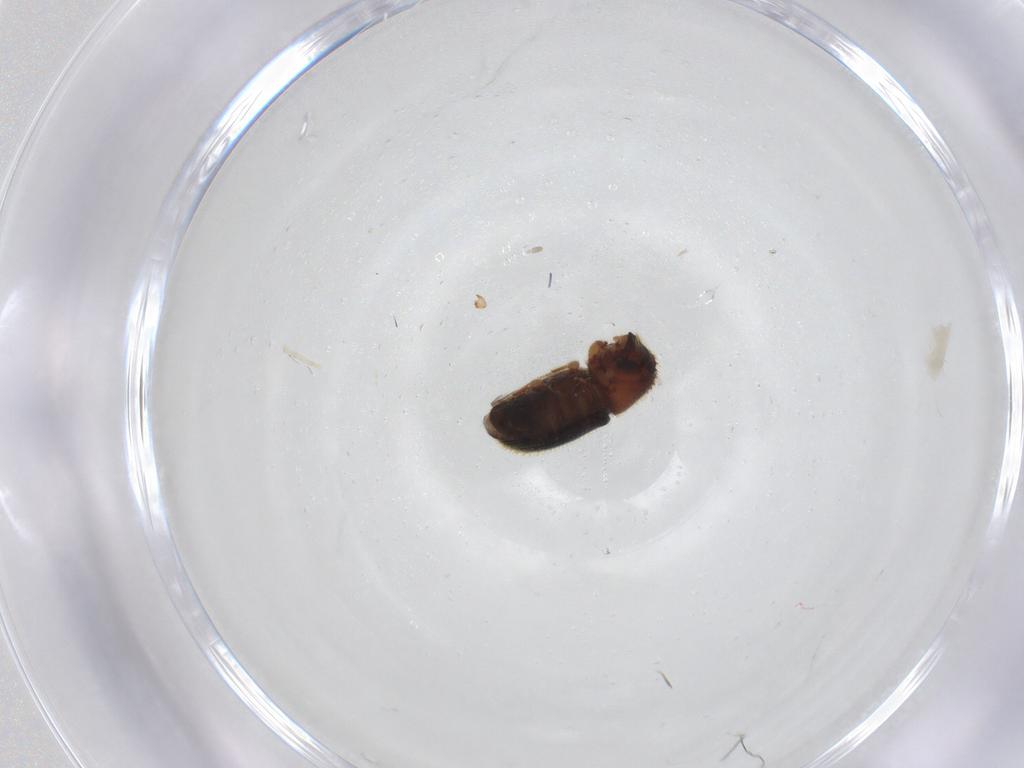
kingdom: Animalia
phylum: Arthropoda
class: Insecta
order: Coleoptera
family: Curculionidae
